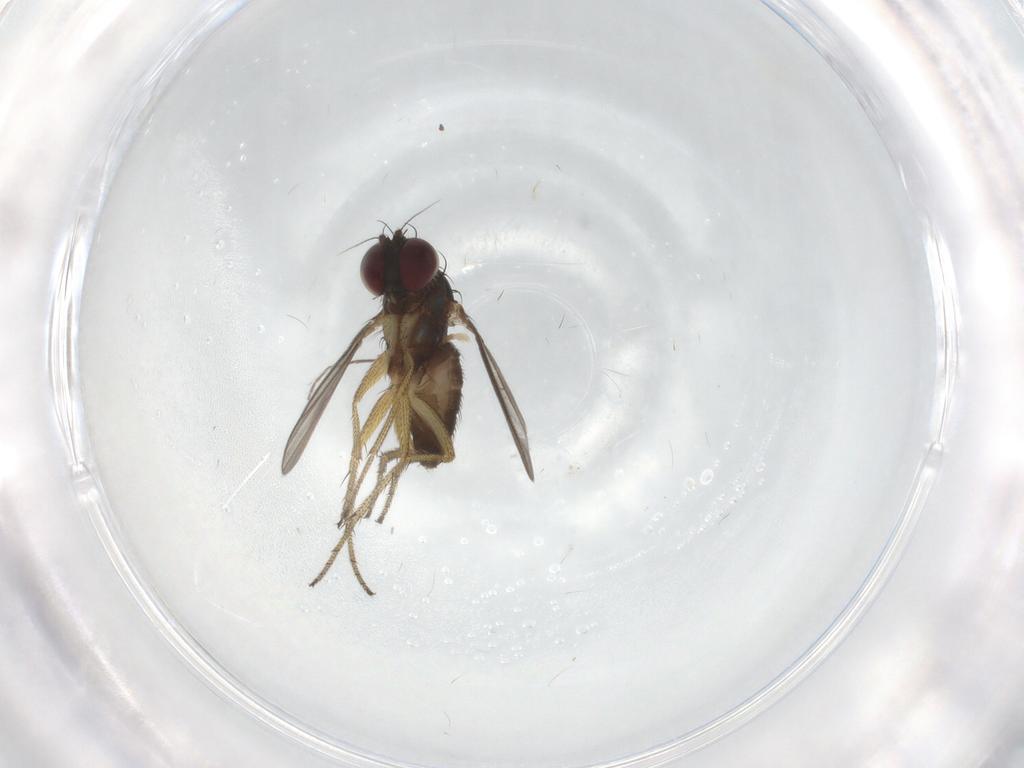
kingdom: Animalia
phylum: Arthropoda
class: Insecta
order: Diptera
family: Dolichopodidae
